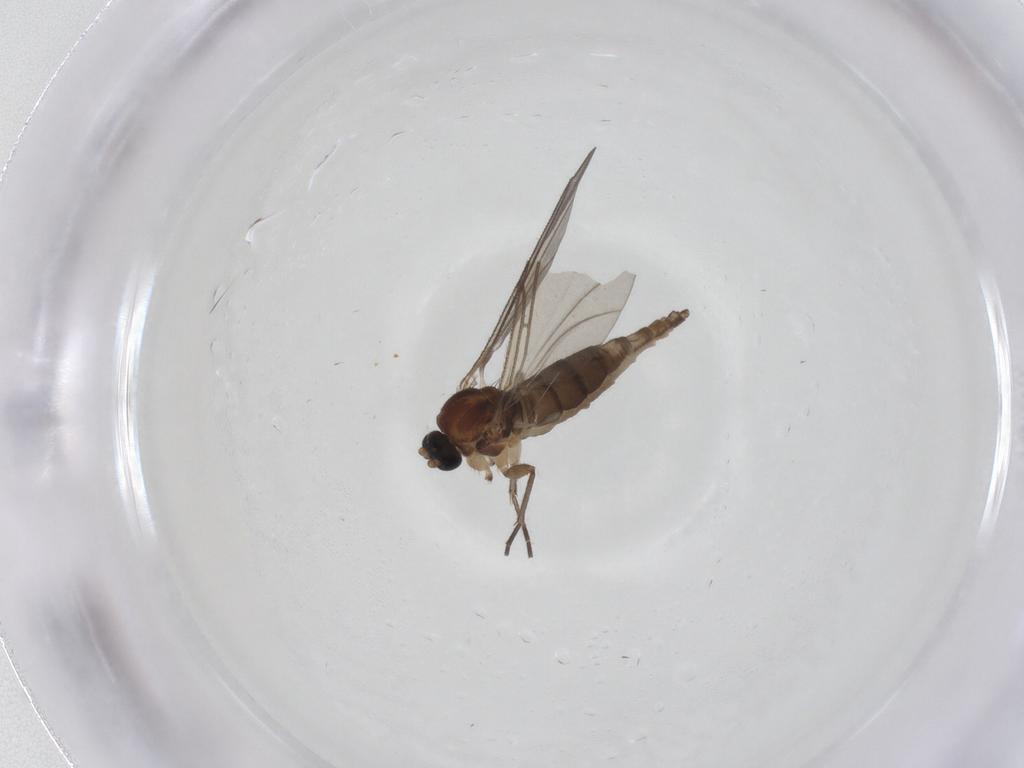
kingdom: Animalia
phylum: Arthropoda
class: Insecta
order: Diptera
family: Sciaridae
